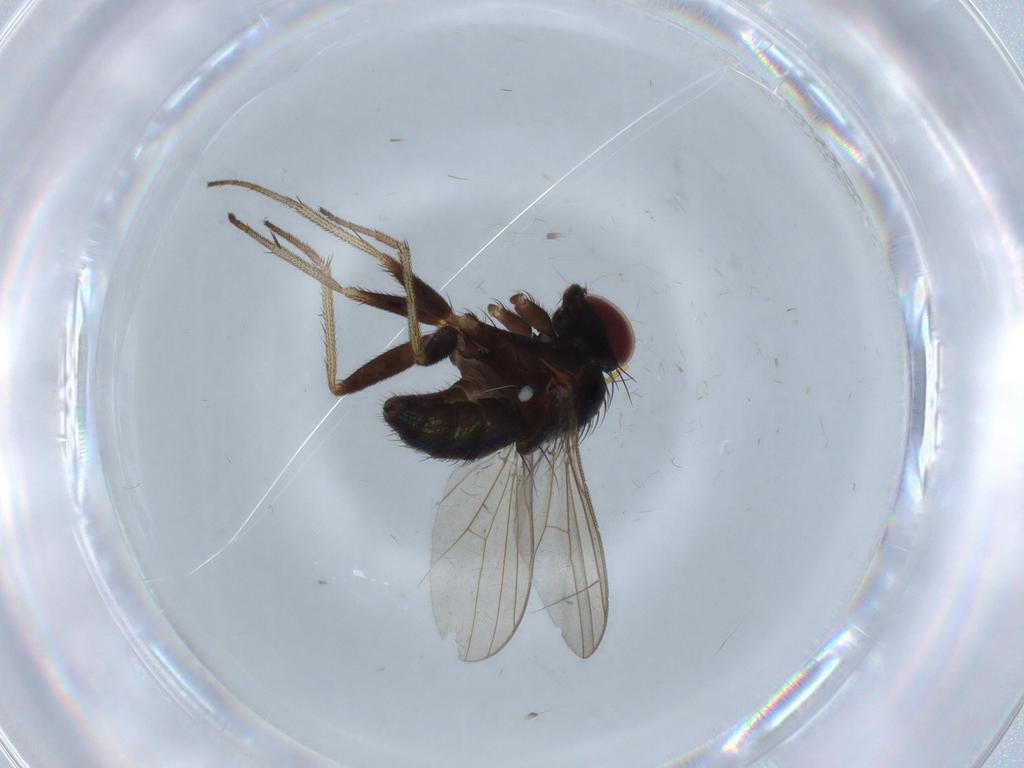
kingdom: Animalia
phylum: Arthropoda
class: Insecta
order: Diptera
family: Dolichopodidae
